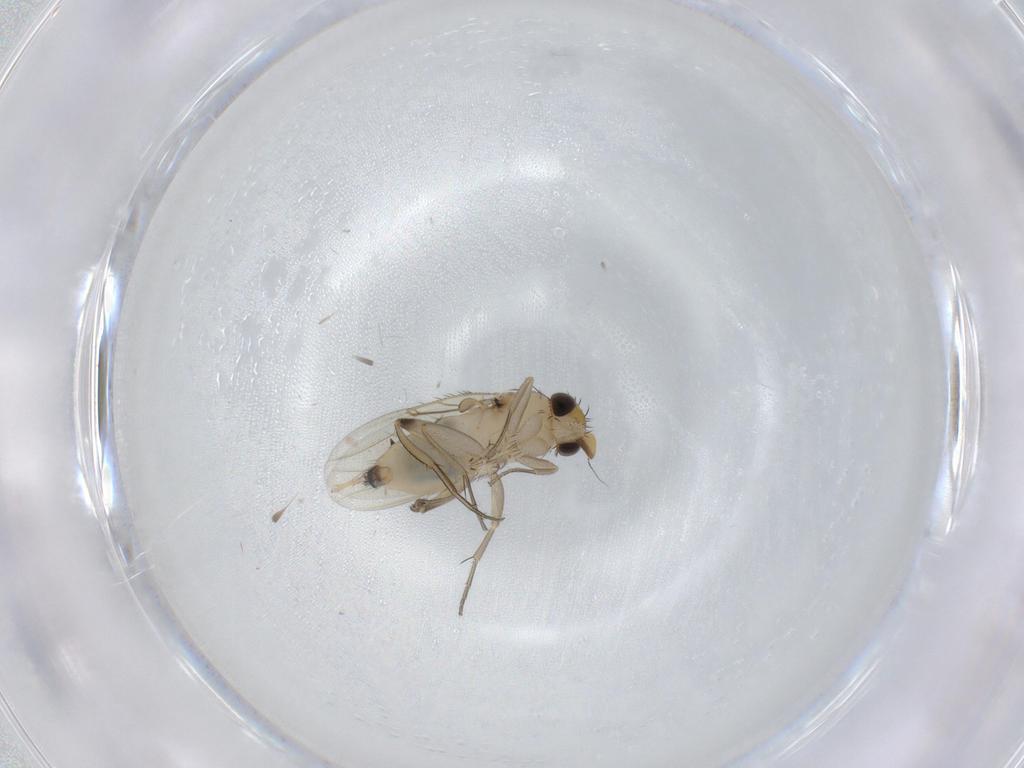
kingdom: Animalia
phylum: Arthropoda
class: Insecta
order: Diptera
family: Phoridae
